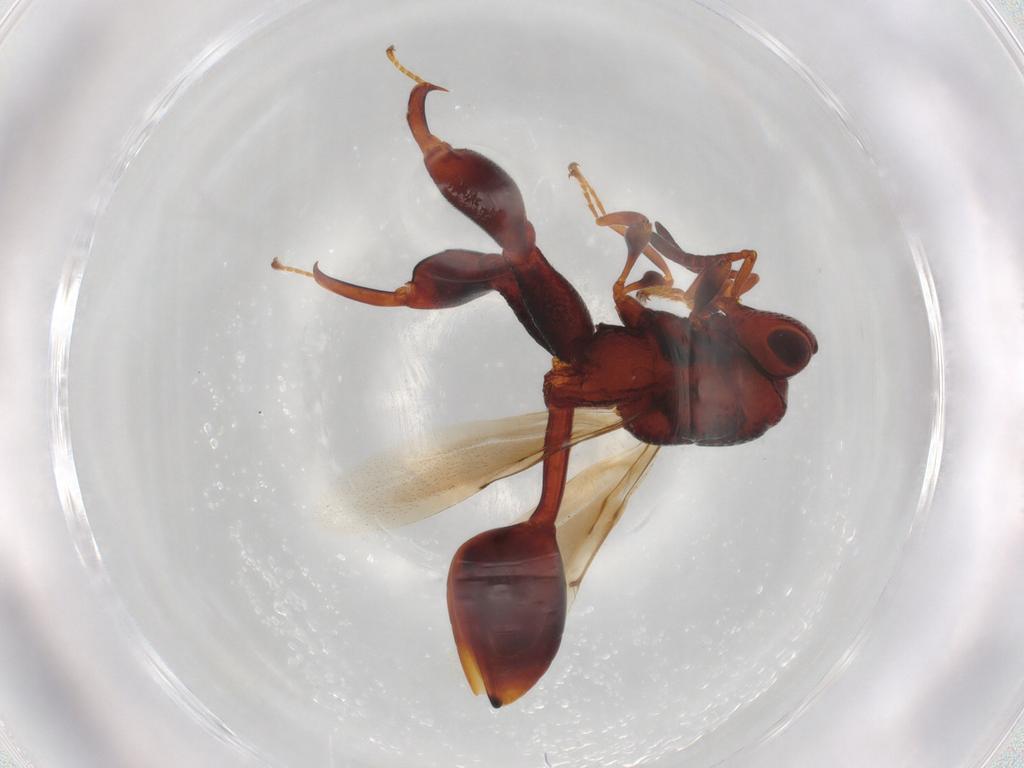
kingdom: Animalia
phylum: Arthropoda
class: Insecta
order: Hymenoptera
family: Chalcididae
